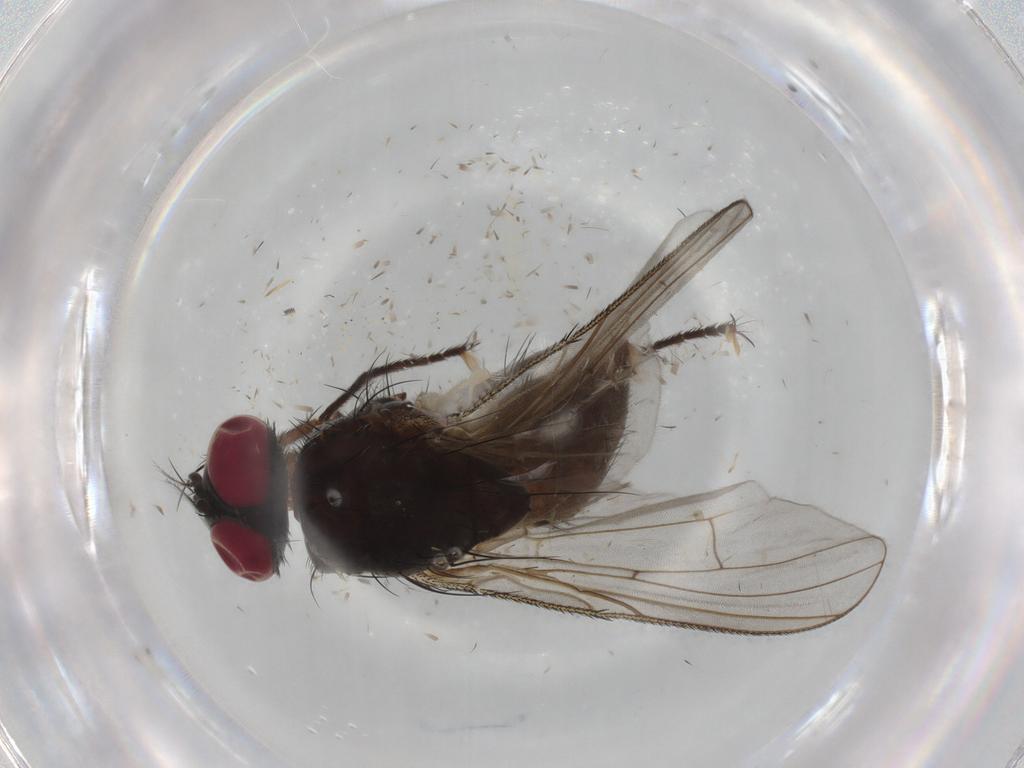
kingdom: Animalia
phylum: Arthropoda
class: Insecta
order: Diptera
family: Muscidae
